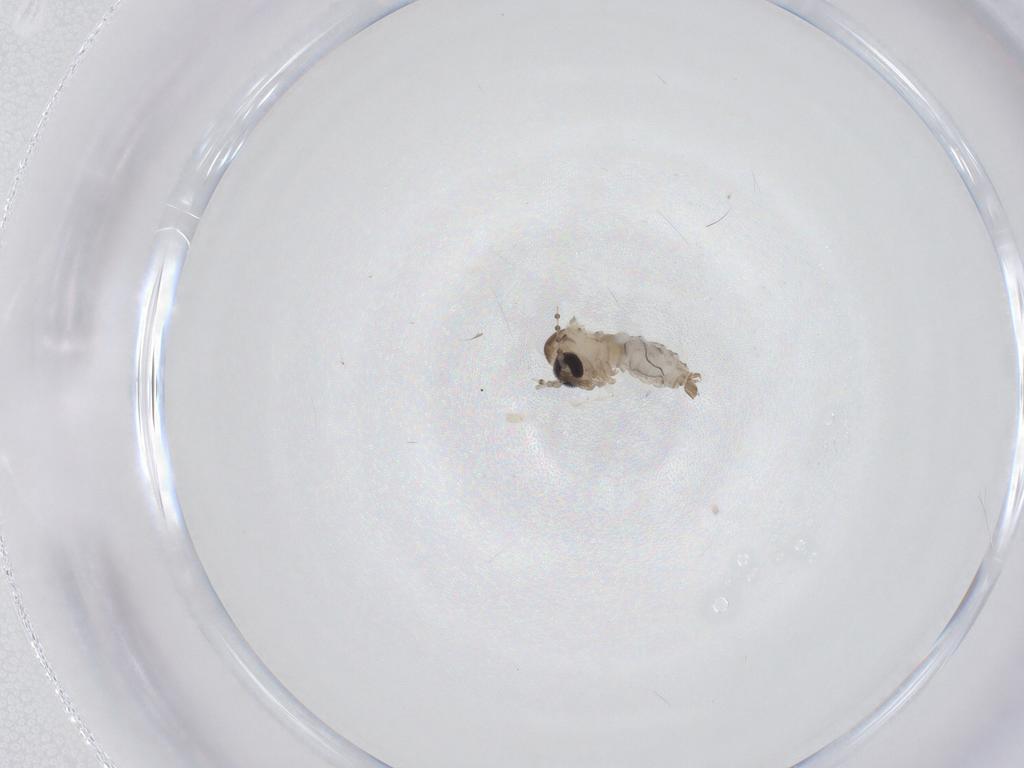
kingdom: Animalia
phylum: Arthropoda
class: Insecta
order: Diptera
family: Psychodidae
